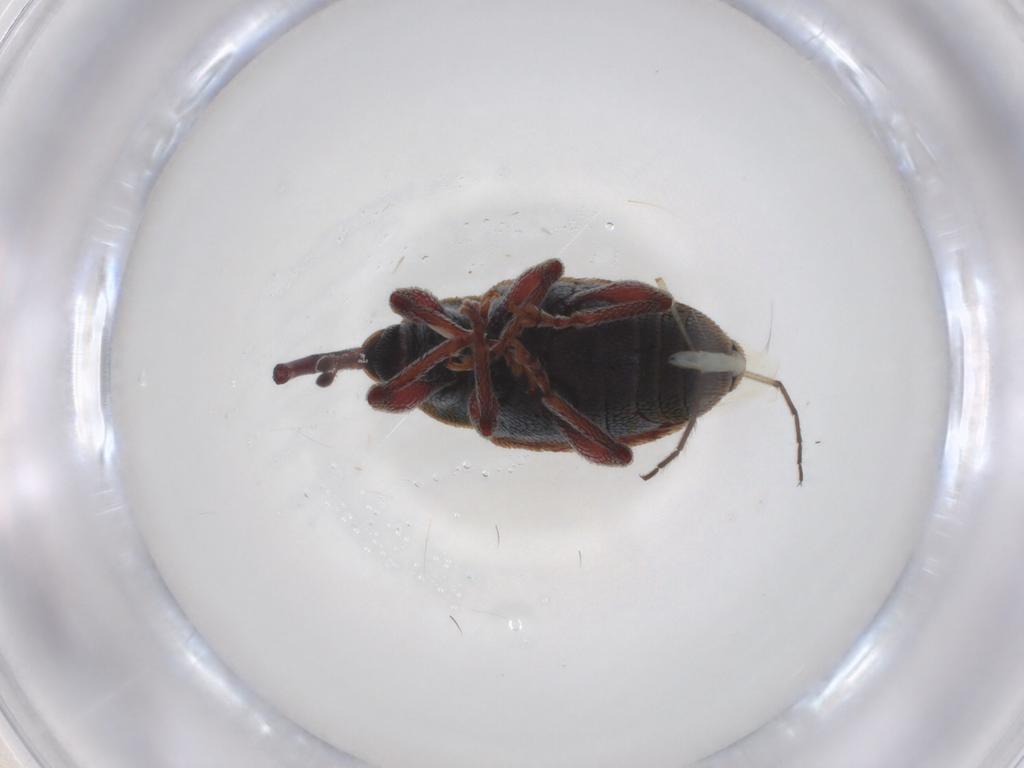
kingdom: Animalia
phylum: Arthropoda
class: Insecta
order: Coleoptera
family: Curculionidae
